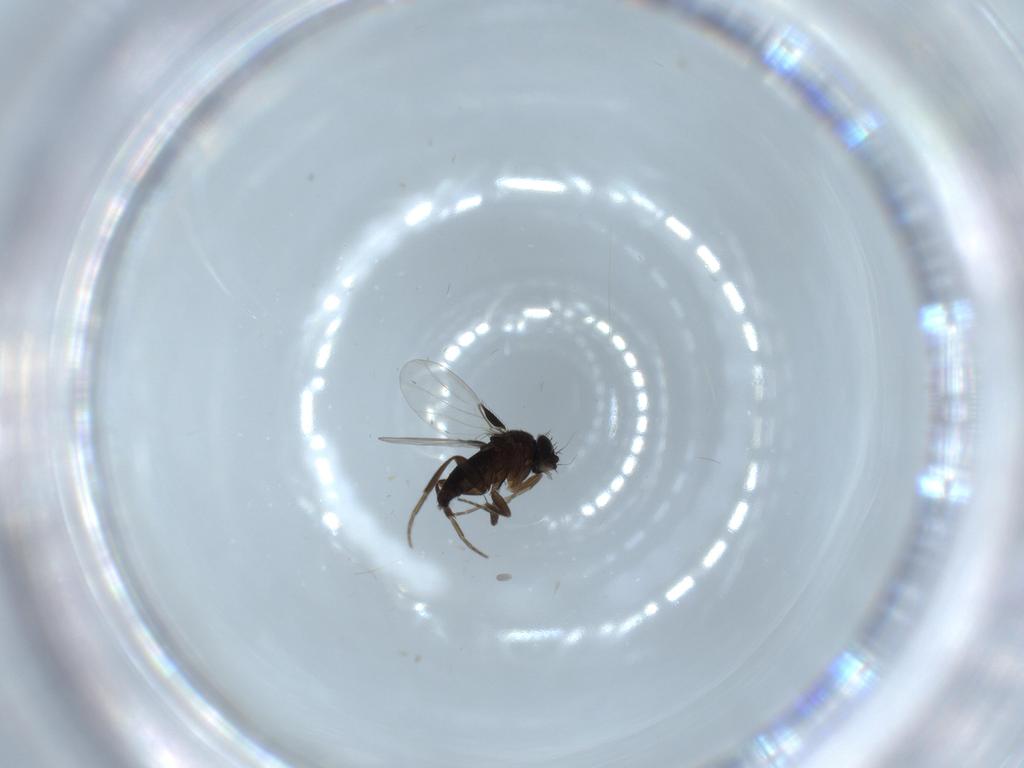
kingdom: Animalia
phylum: Arthropoda
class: Insecta
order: Diptera
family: Phoridae
